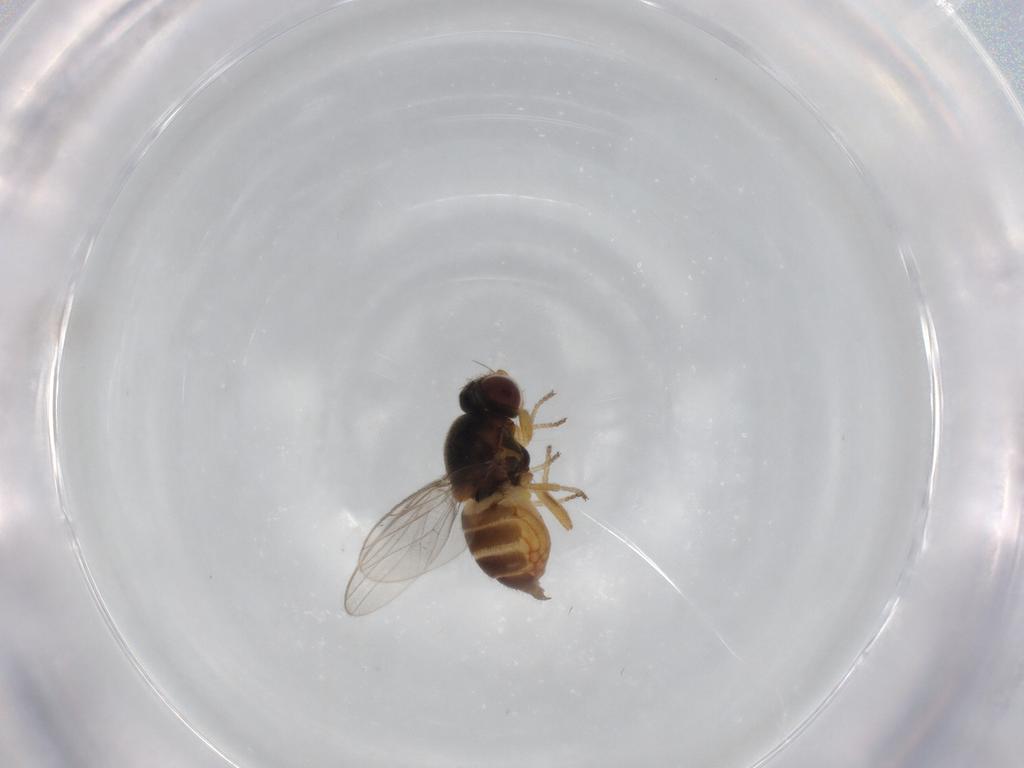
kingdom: Animalia
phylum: Arthropoda
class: Insecta
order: Diptera
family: Chloropidae
